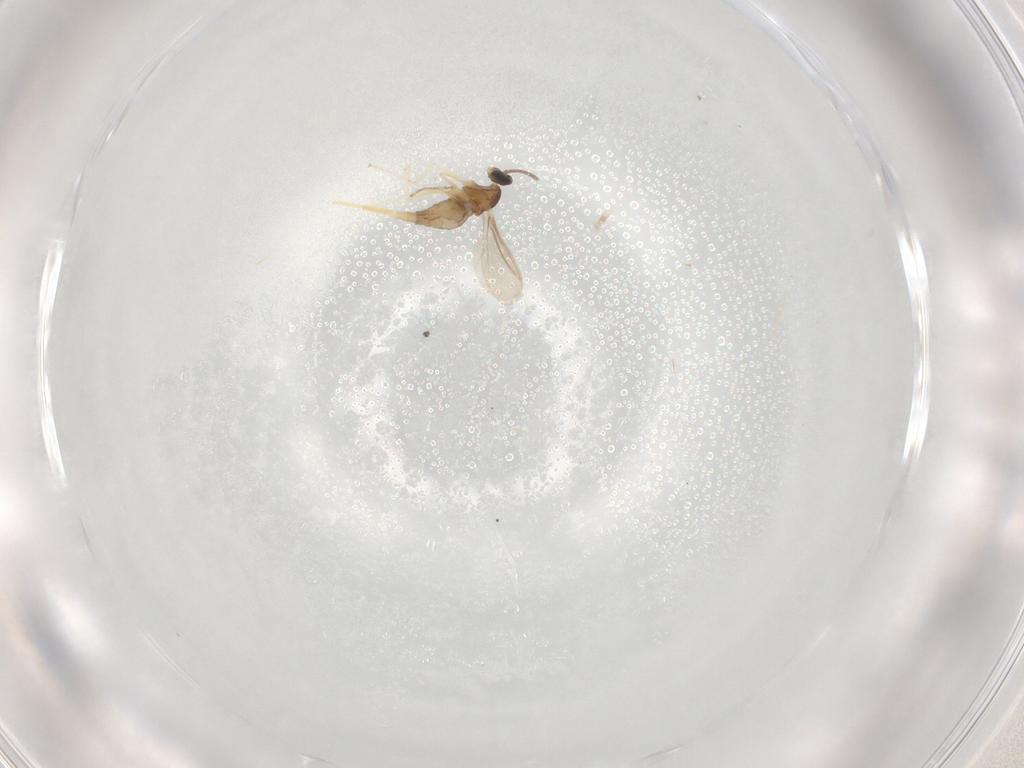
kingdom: Animalia
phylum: Arthropoda
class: Insecta
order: Diptera
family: Cecidomyiidae
